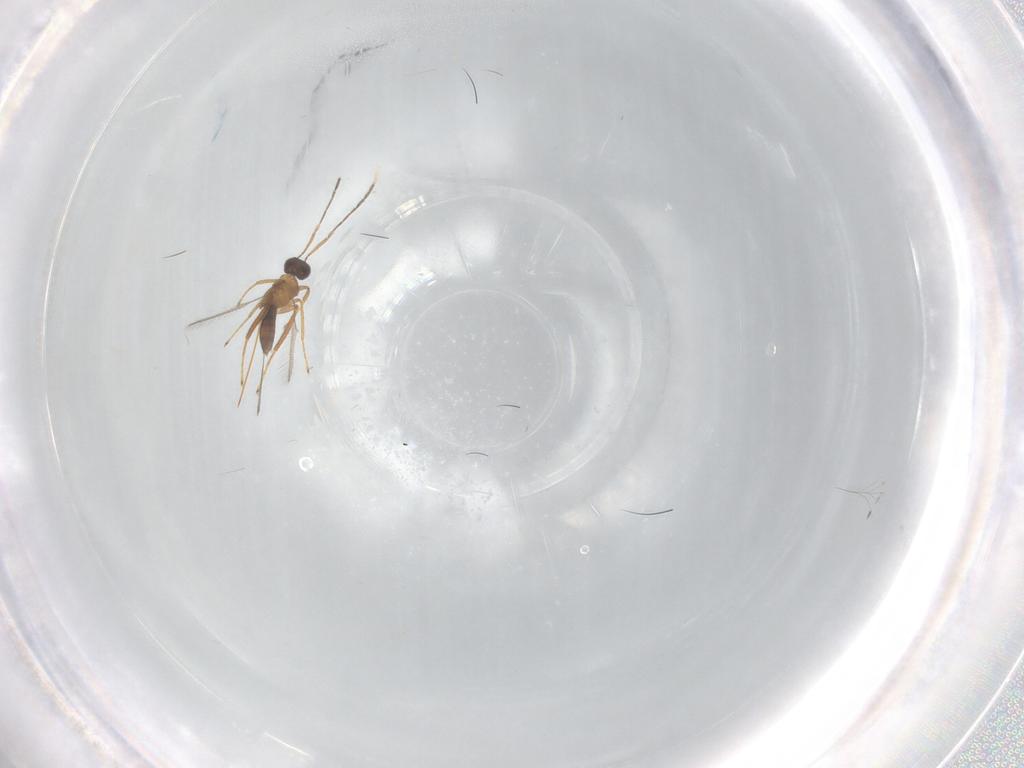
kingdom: Animalia
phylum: Arthropoda
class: Insecta
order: Hymenoptera
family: Mymaridae
